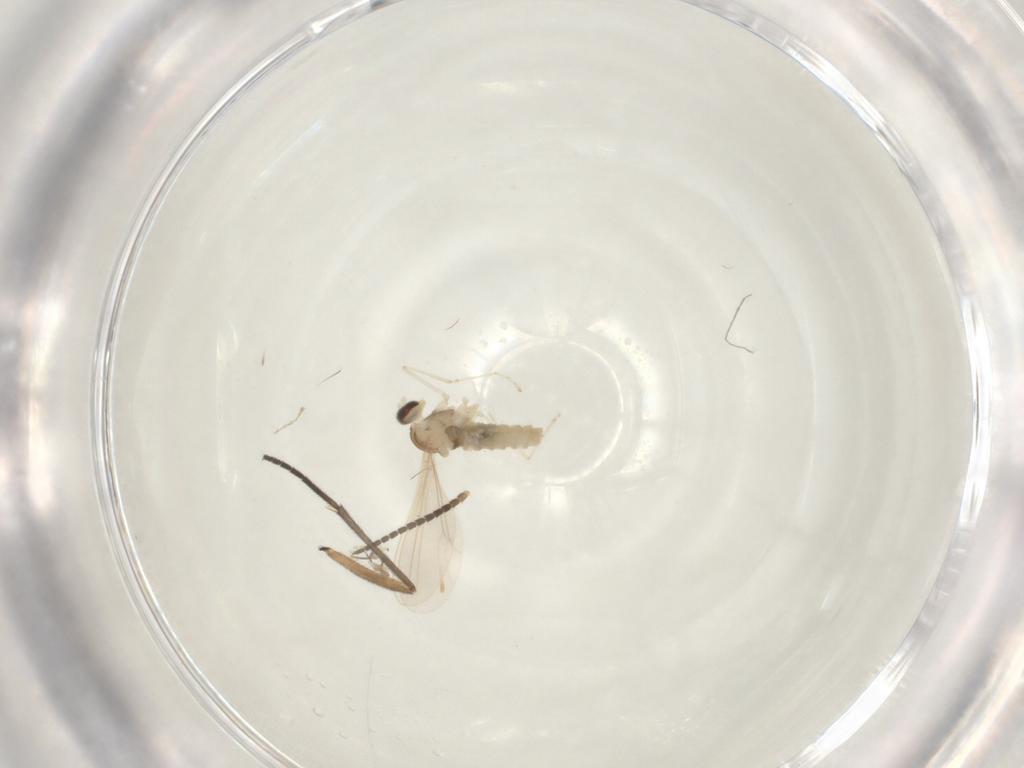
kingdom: Animalia
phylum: Arthropoda
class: Insecta
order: Diptera
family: Sciaridae
